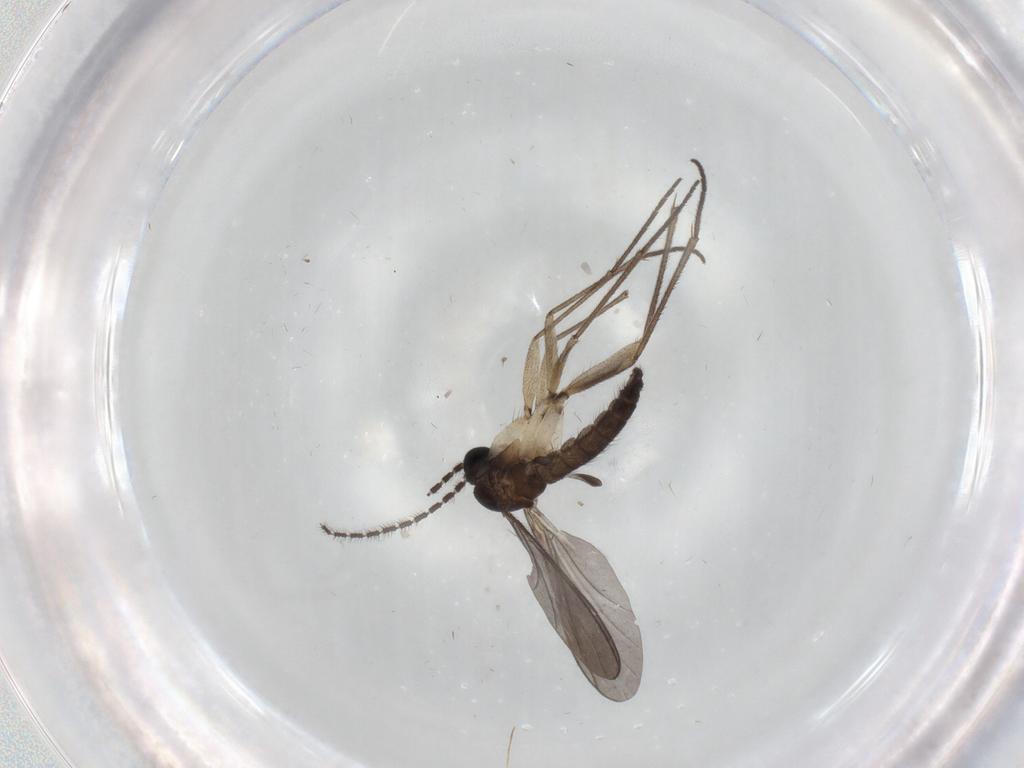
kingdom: Animalia
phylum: Arthropoda
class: Insecta
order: Diptera
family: Sciaridae
